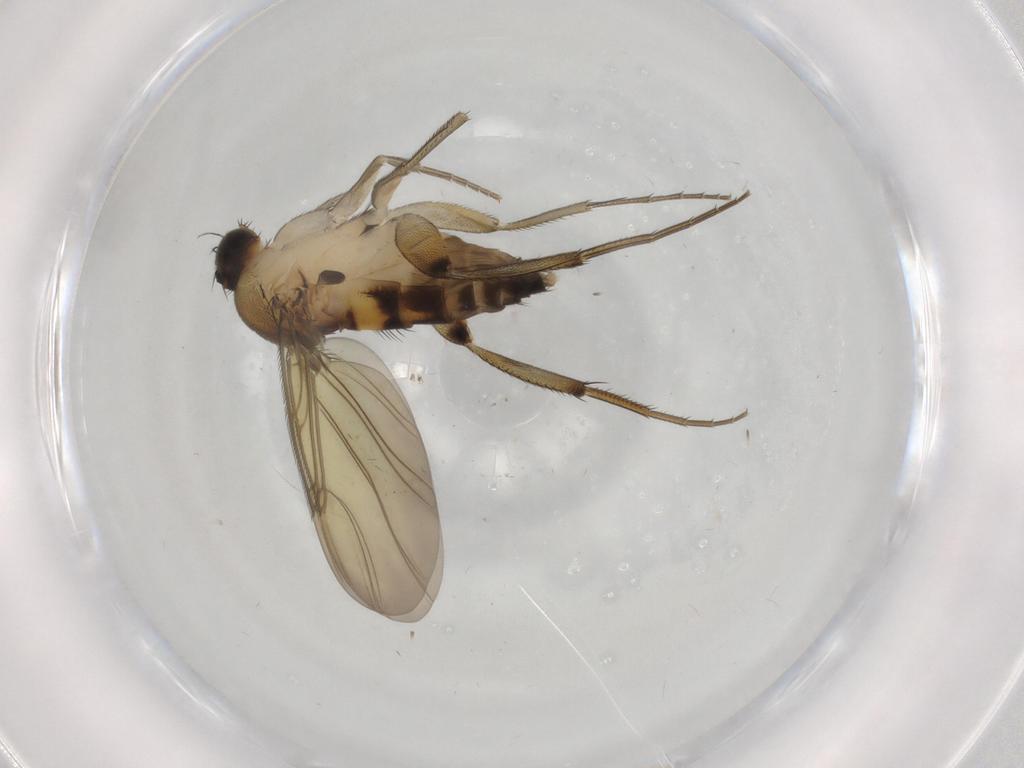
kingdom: Animalia
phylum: Arthropoda
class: Insecta
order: Diptera
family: Phoridae
